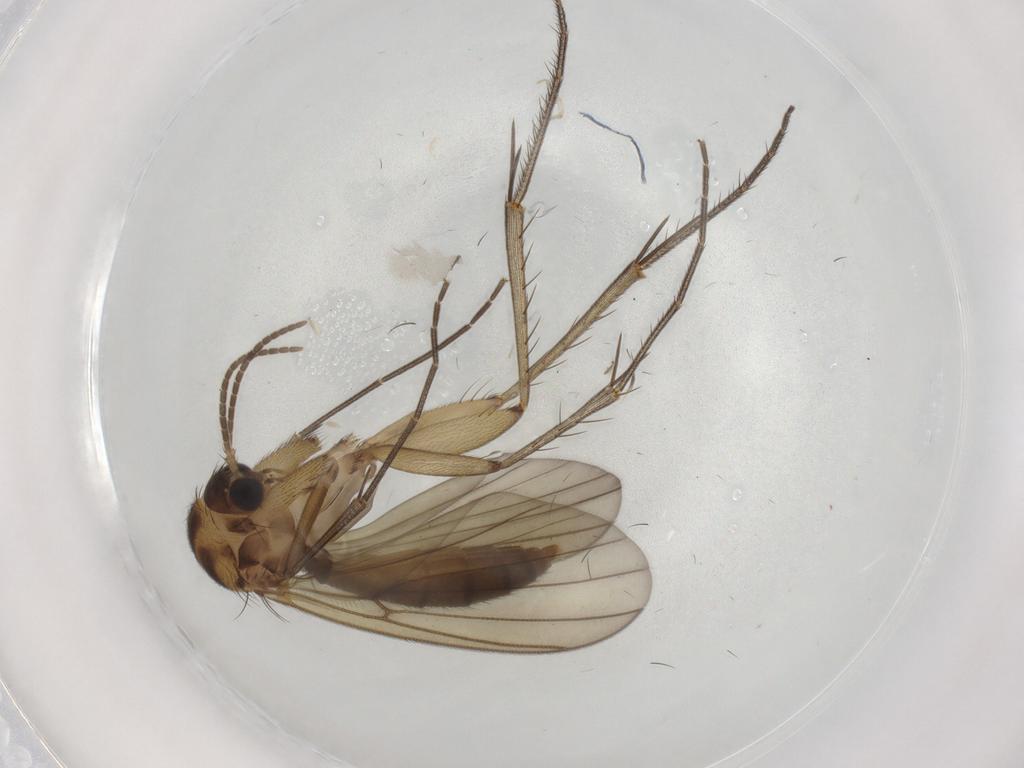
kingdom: Animalia
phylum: Arthropoda
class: Insecta
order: Diptera
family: Mycetophilidae
